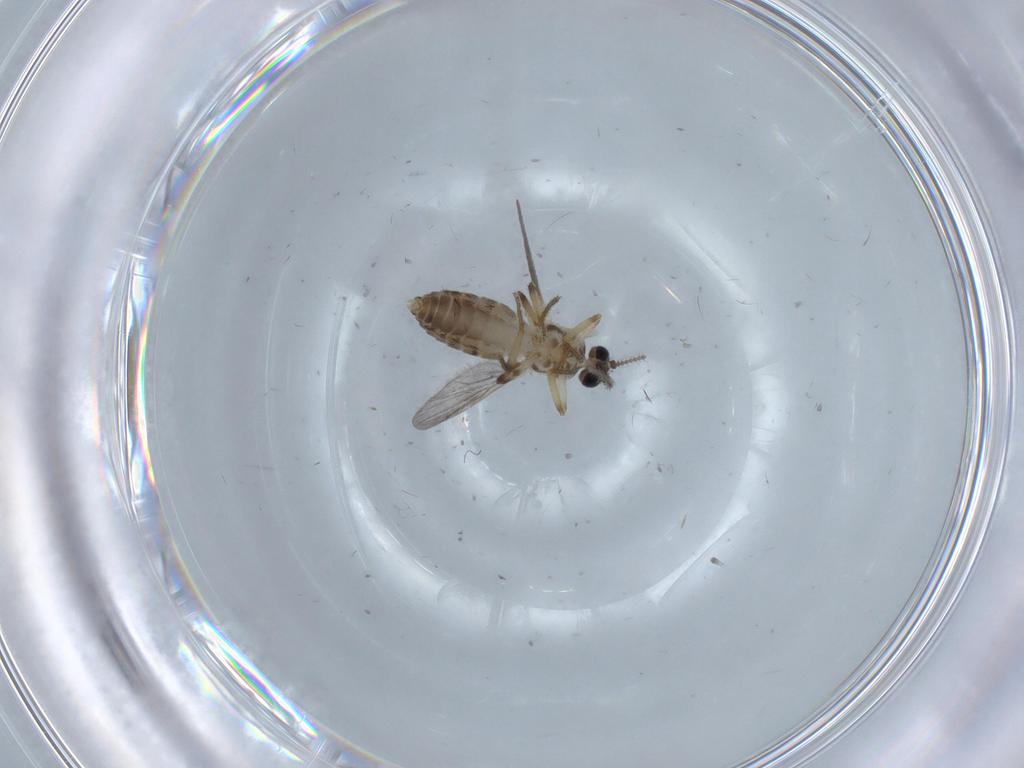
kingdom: Animalia
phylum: Arthropoda
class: Insecta
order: Diptera
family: Ceratopogonidae
